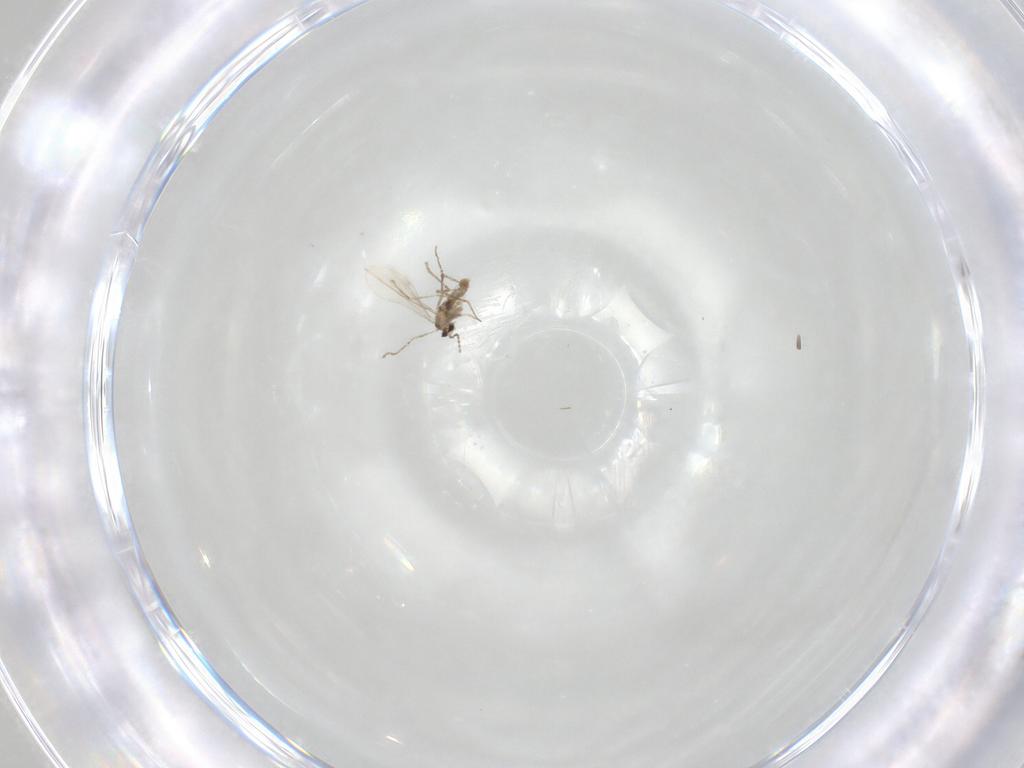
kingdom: Animalia
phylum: Arthropoda
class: Insecta
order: Diptera
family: Cecidomyiidae
